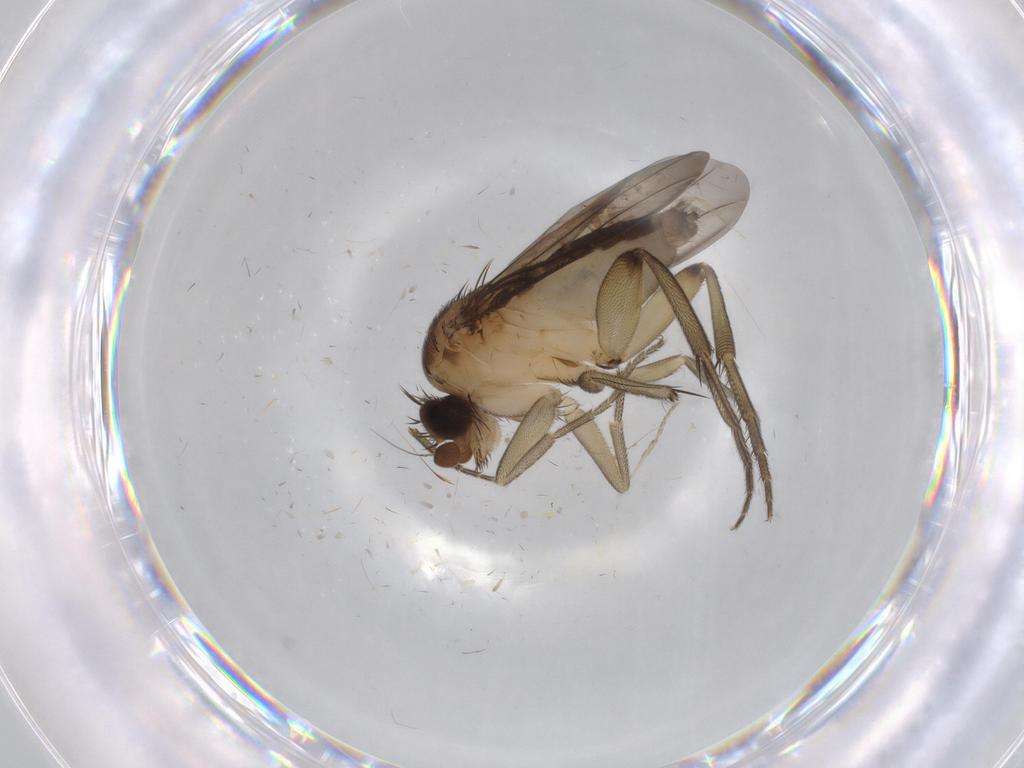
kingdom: Animalia
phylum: Arthropoda
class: Insecta
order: Diptera
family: Cecidomyiidae
